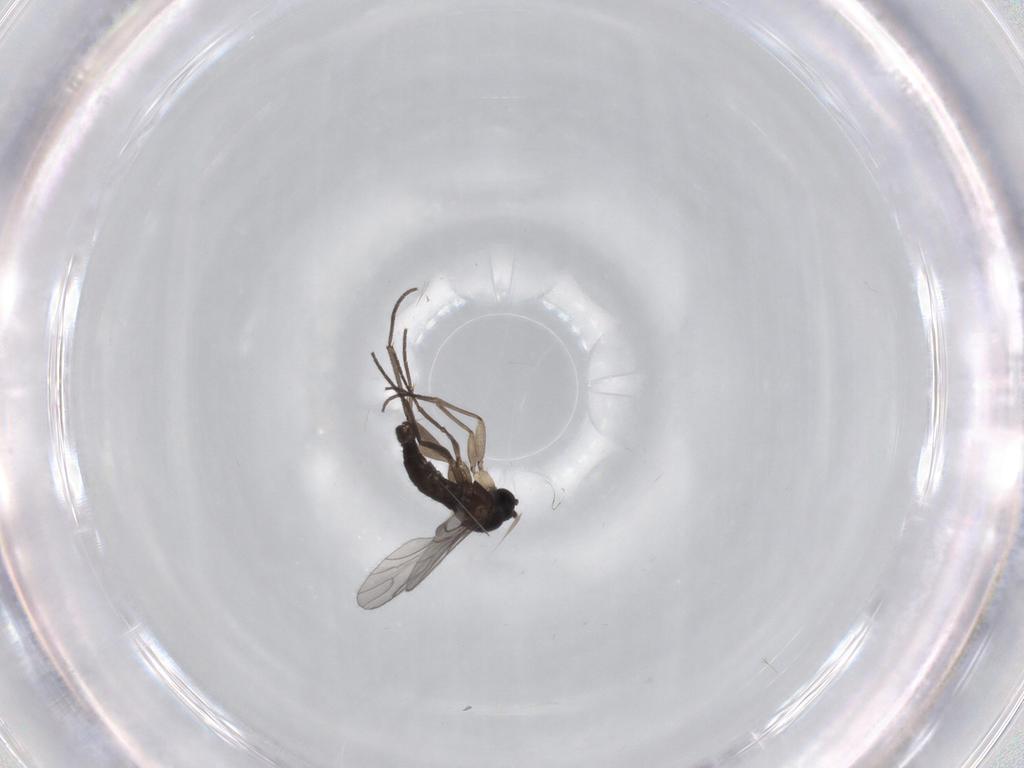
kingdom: Animalia
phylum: Arthropoda
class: Insecta
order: Diptera
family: Sciaridae
